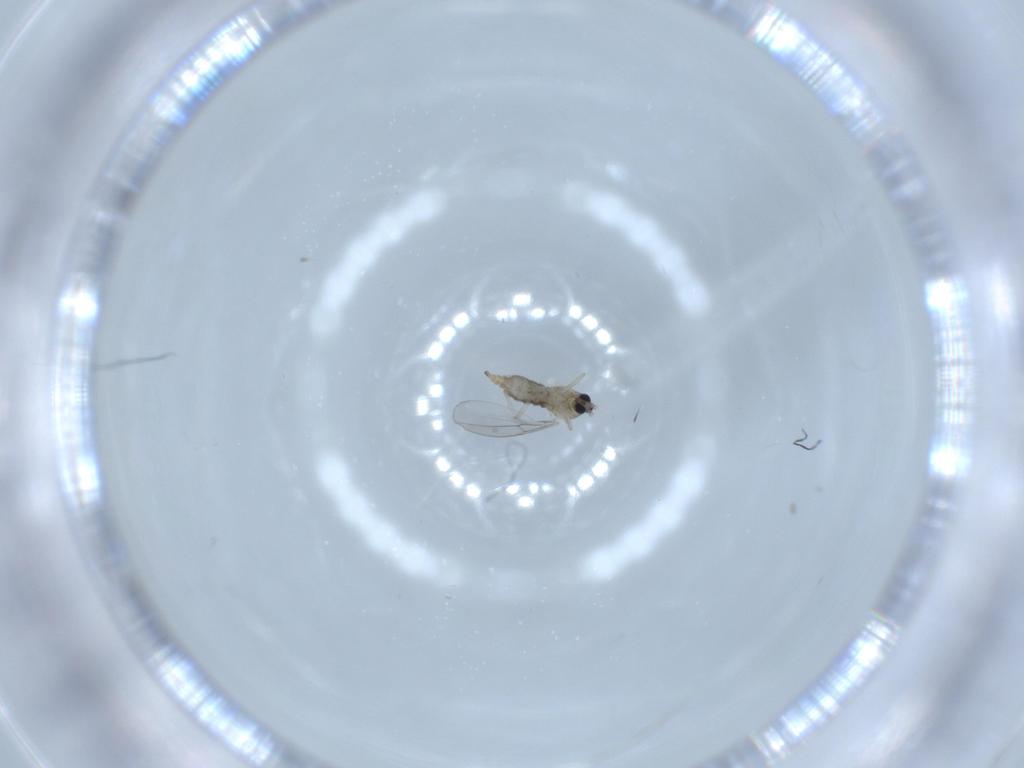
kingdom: Animalia
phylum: Arthropoda
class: Insecta
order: Diptera
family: Cecidomyiidae
